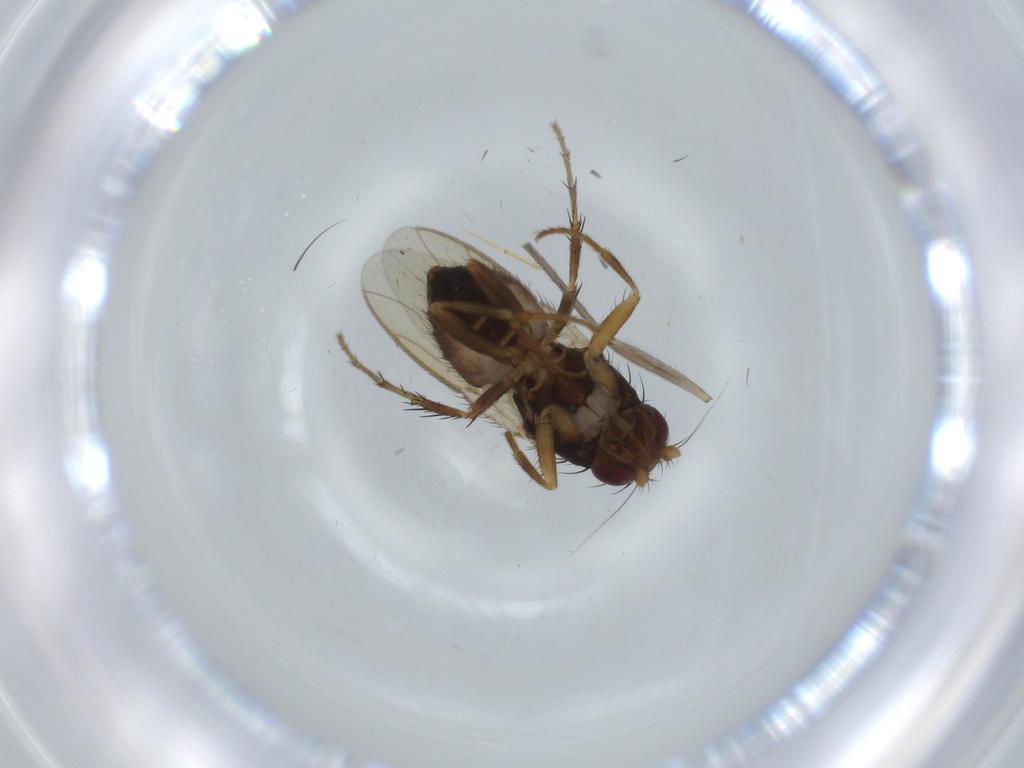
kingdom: Animalia
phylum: Arthropoda
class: Insecta
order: Diptera
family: Sphaeroceridae
